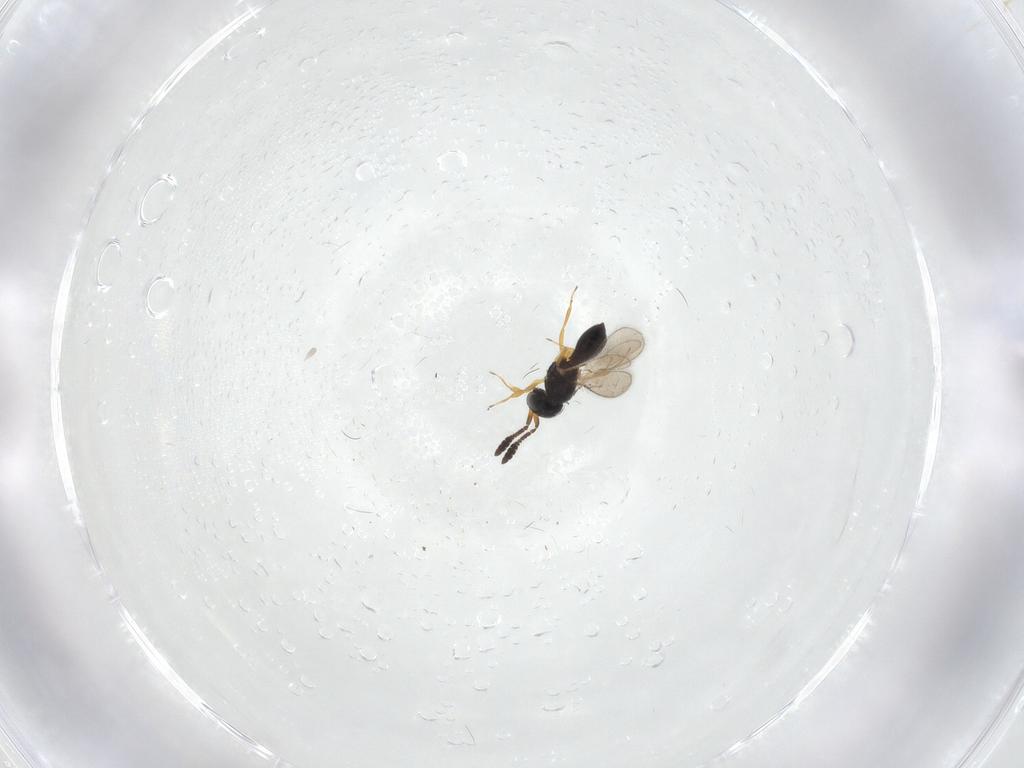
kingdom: Animalia
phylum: Arthropoda
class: Insecta
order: Hymenoptera
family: Scelionidae
